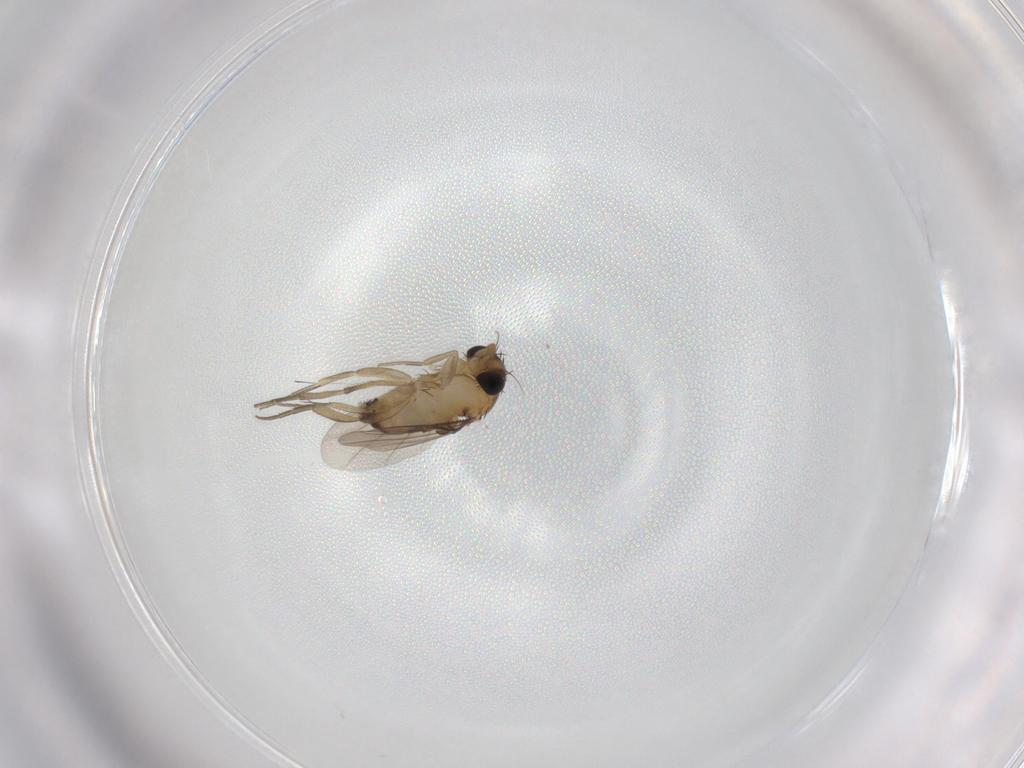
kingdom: Animalia
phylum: Arthropoda
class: Insecta
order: Diptera
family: Phoridae
